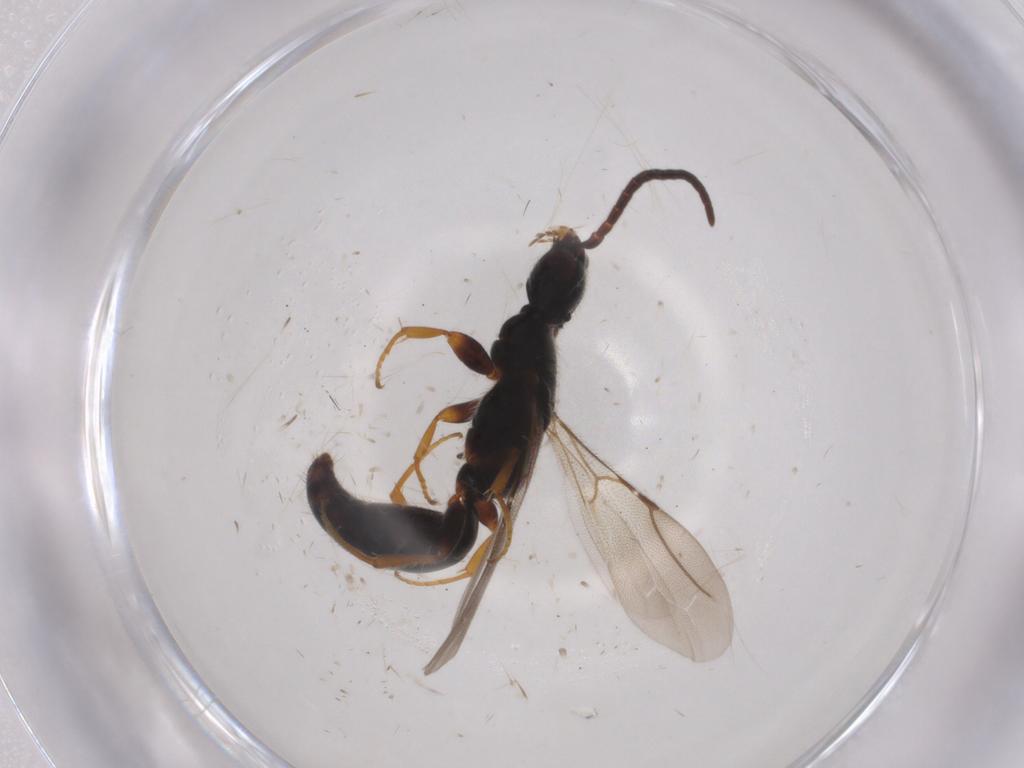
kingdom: Animalia
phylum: Arthropoda
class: Insecta
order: Hymenoptera
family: Bethylidae
